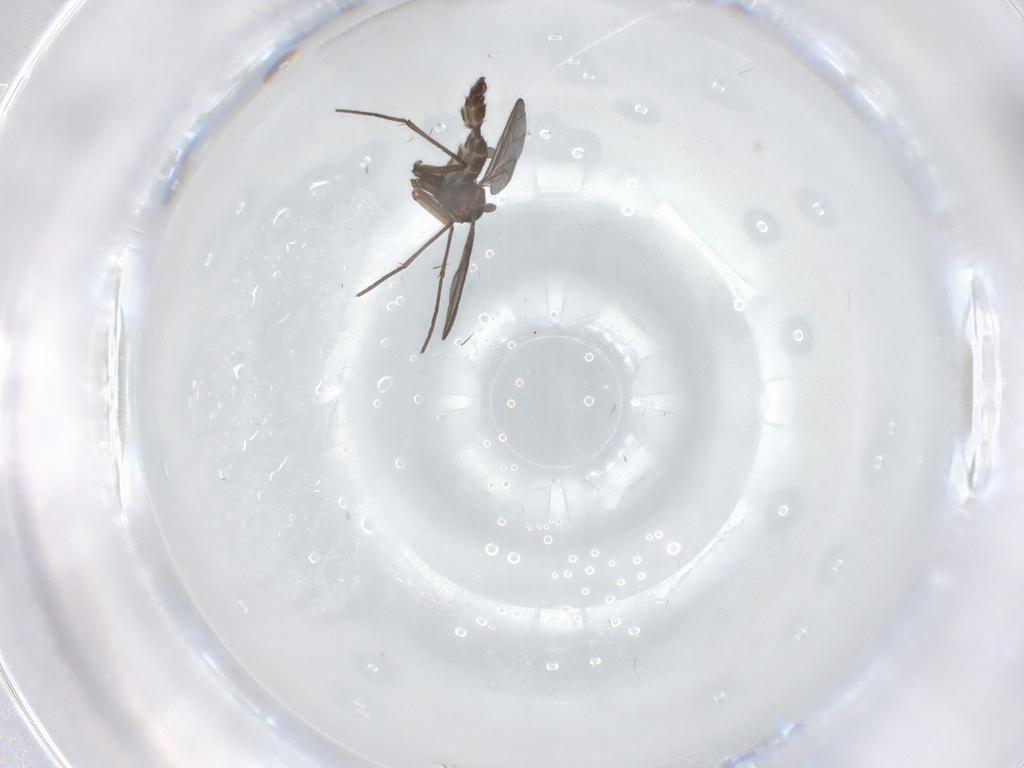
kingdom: Animalia
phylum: Arthropoda
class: Insecta
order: Diptera
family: Sciaridae
